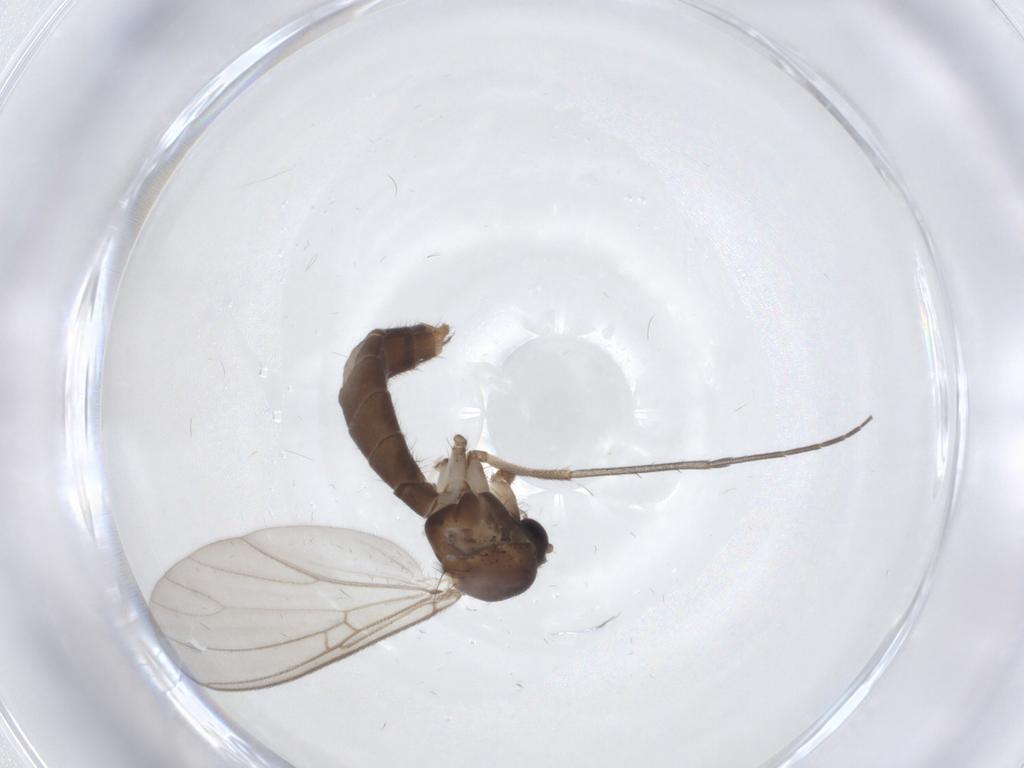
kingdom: Animalia
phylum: Arthropoda
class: Insecta
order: Diptera
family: Mycetophilidae
